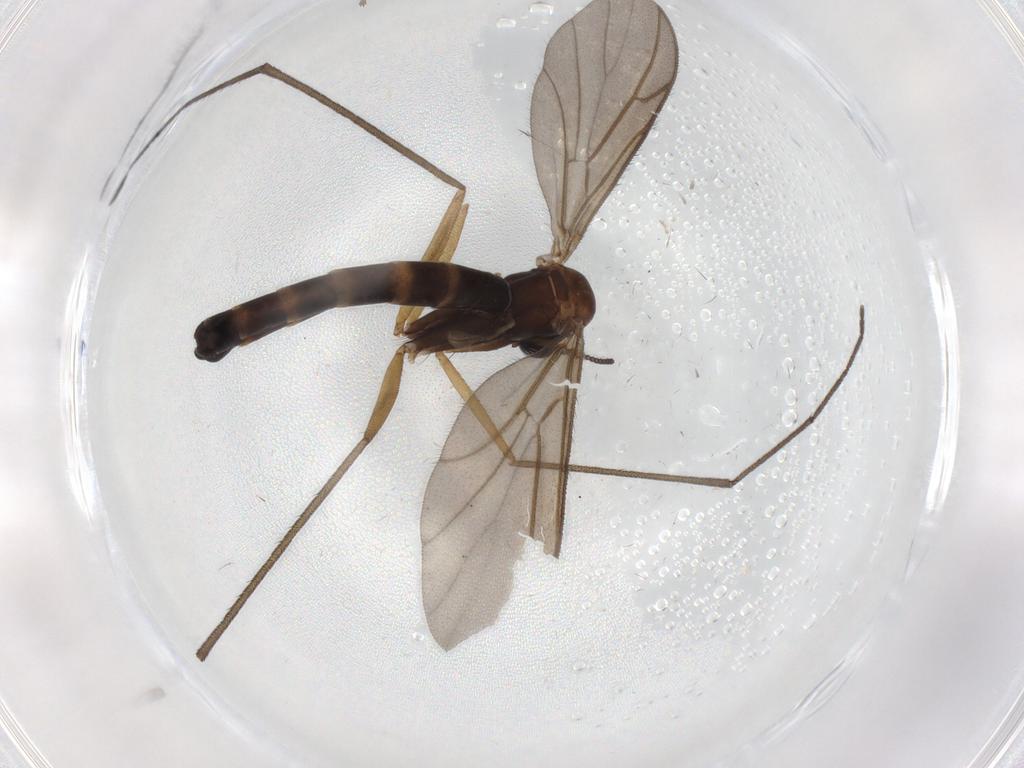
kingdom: Animalia
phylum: Arthropoda
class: Insecta
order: Diptera
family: Ditomyiidae
